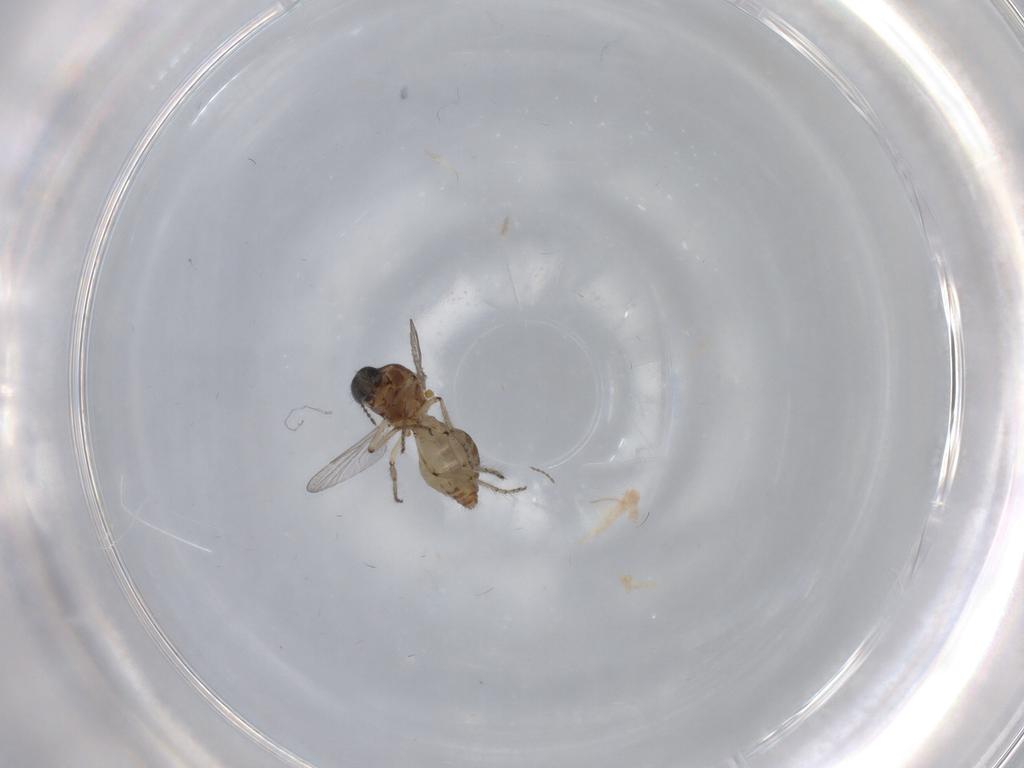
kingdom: Animalia
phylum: Arthropoda
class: Insecta
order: Diptera
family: Ceratopogonidae
